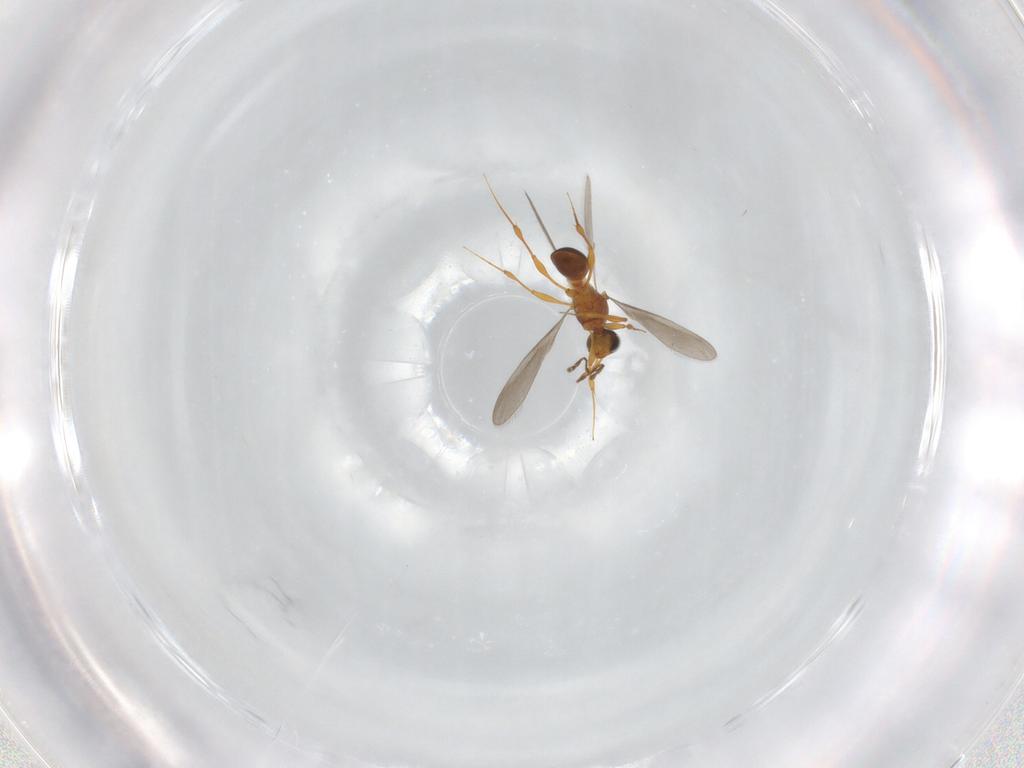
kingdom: Animalia
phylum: Arthropoda
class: Insecta
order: Hymenoptera
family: Platygastridae
